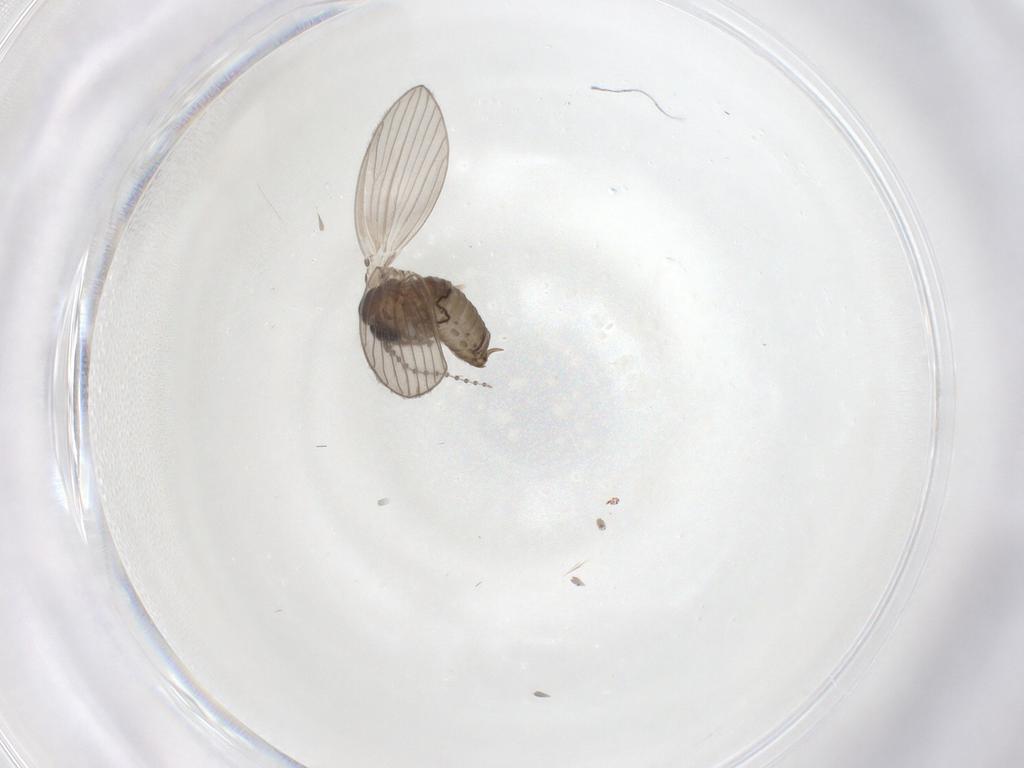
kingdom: Animalia
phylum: Arthropoda
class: Insecta
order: Diptera
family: Psychodidae
